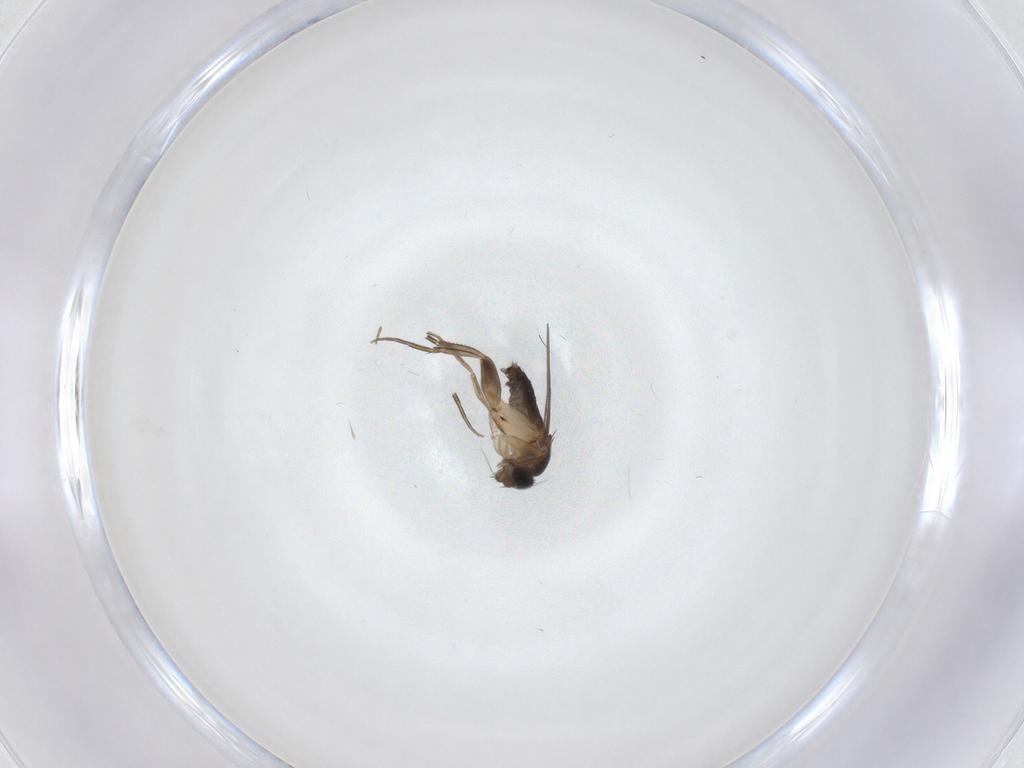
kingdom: Animalia
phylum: Arthropoda
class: Insecta
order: Diptera
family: Phoridae
